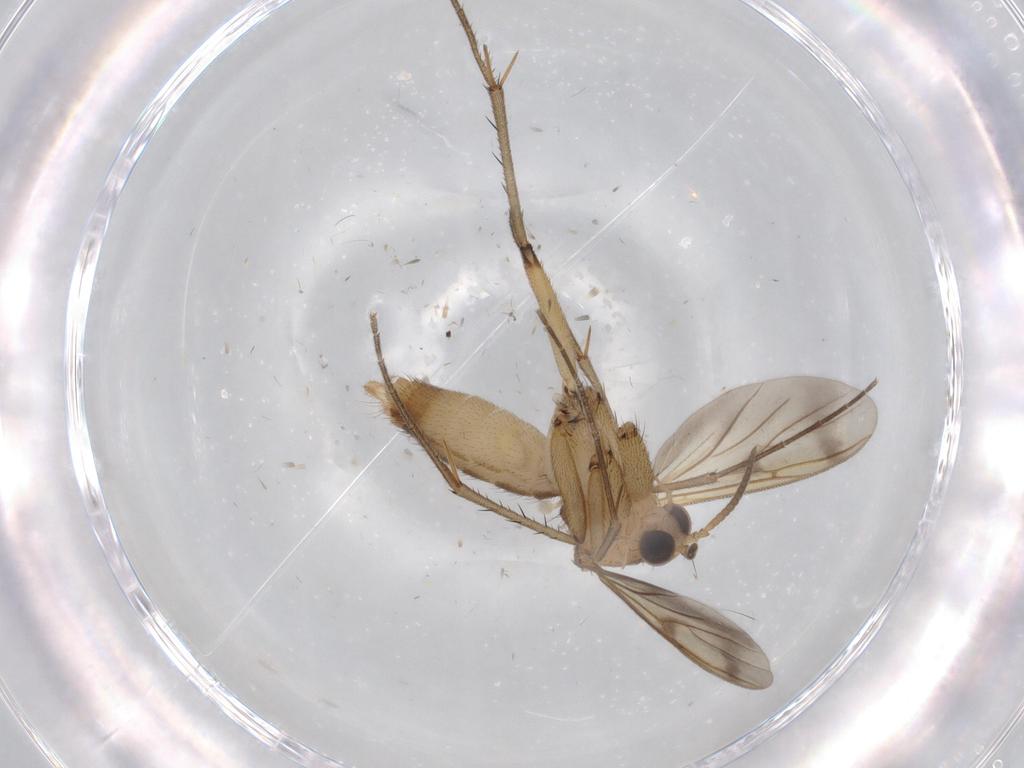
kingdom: Animalia
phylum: Arthropoda
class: Insecta
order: Diptera
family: Mycetophilidae
